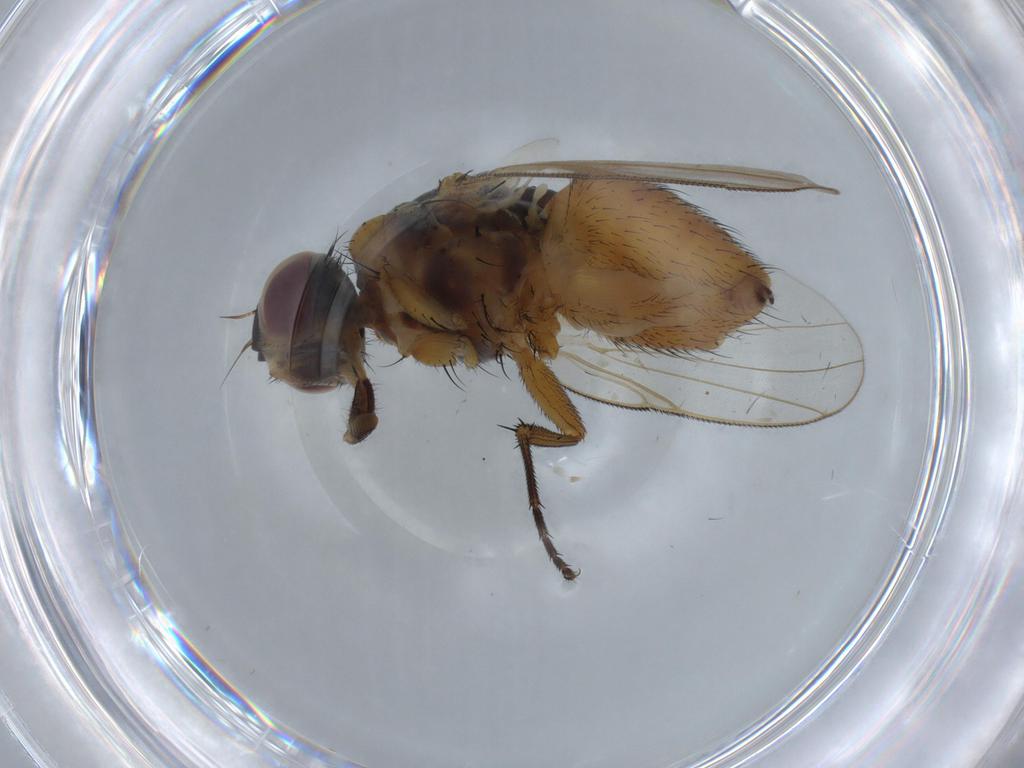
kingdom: Animalia
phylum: Arthropoda
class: Insecta
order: Diptera
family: Muscidae
